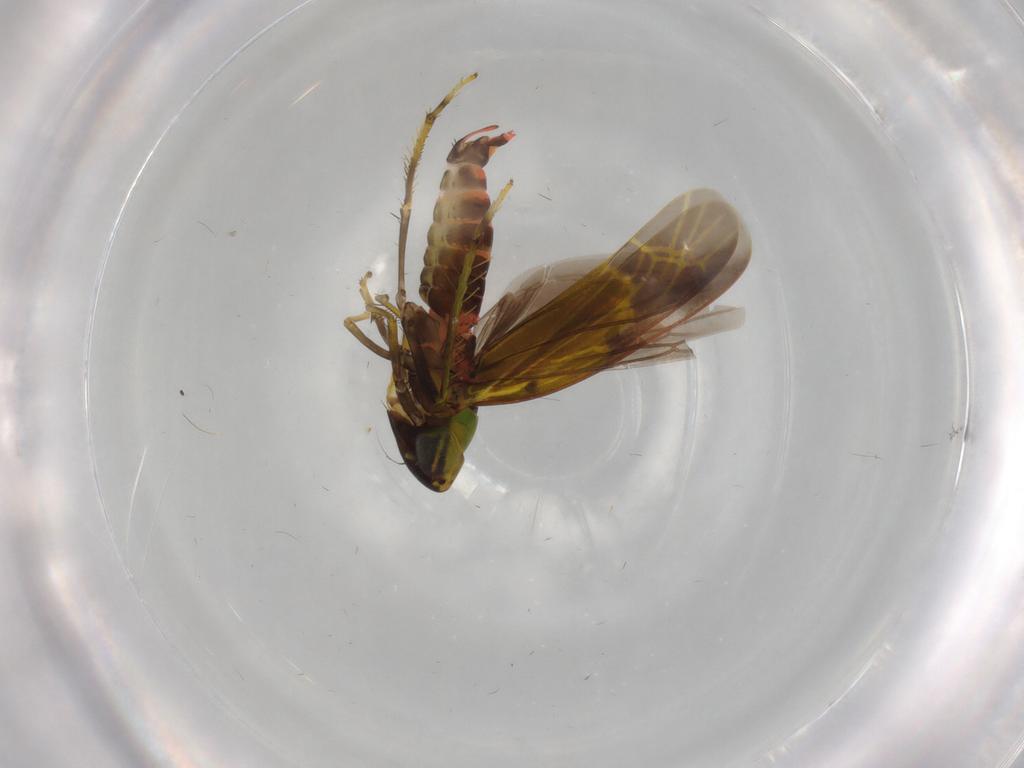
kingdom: Animalia
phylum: Arthropoda
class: Insecta
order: Hemiptera
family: Cicadellidae
